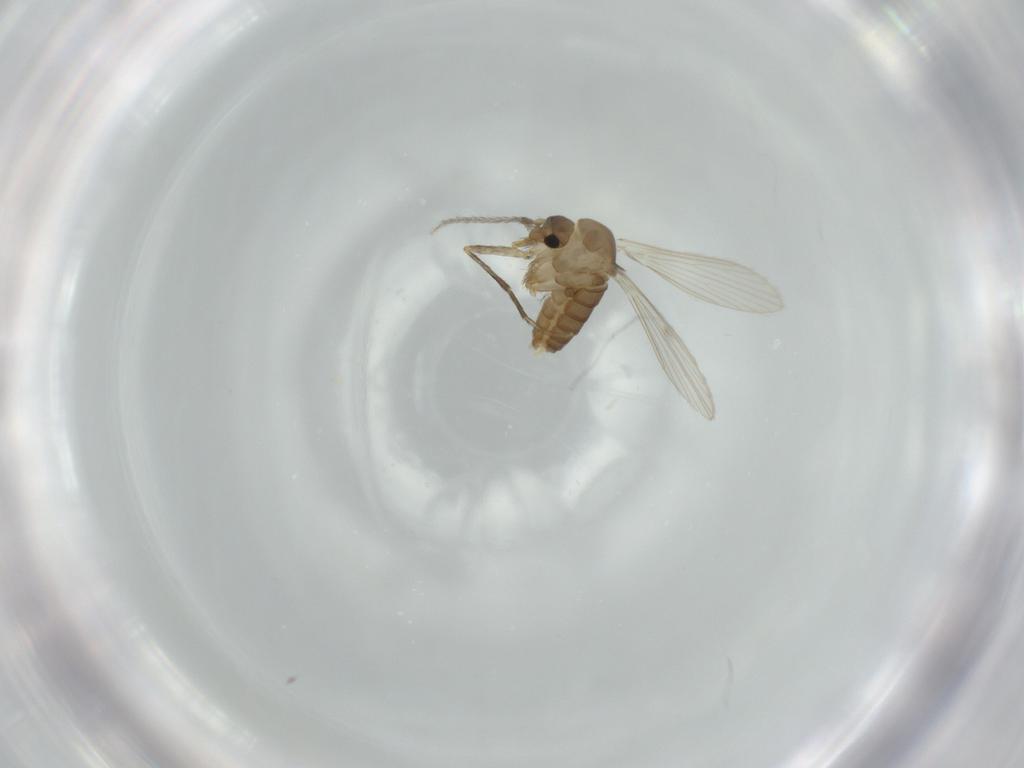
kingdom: Animalia
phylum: Arthropoda
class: Insecta
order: Diptera
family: Psychodidae
